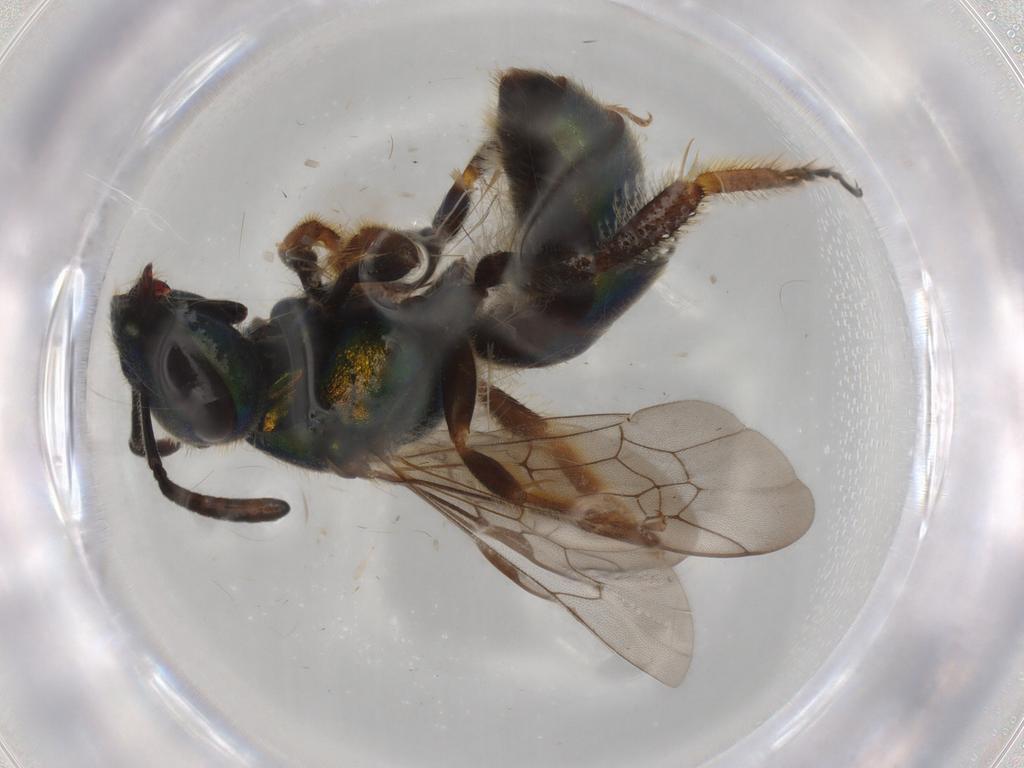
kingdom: Animalia
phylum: Arthropoda
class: Insecta
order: Hymenoptera
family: Halictidae
